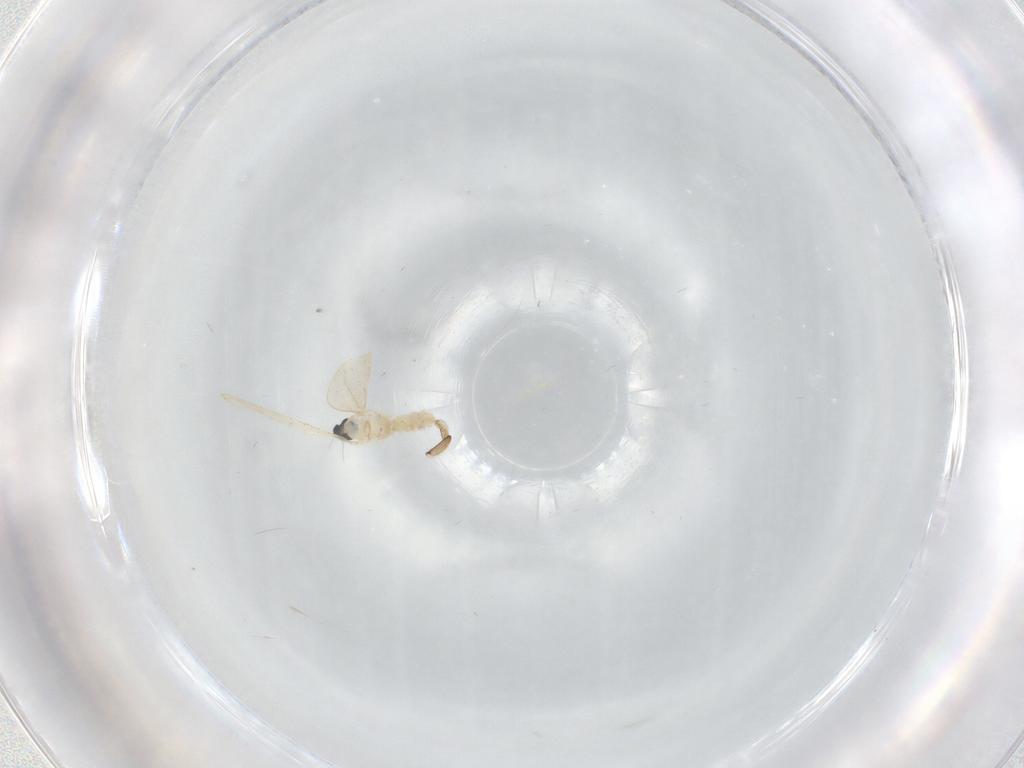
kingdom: Animalia
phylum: Arthropoda
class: Insecta
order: Diptera
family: Cecidomyiidae
